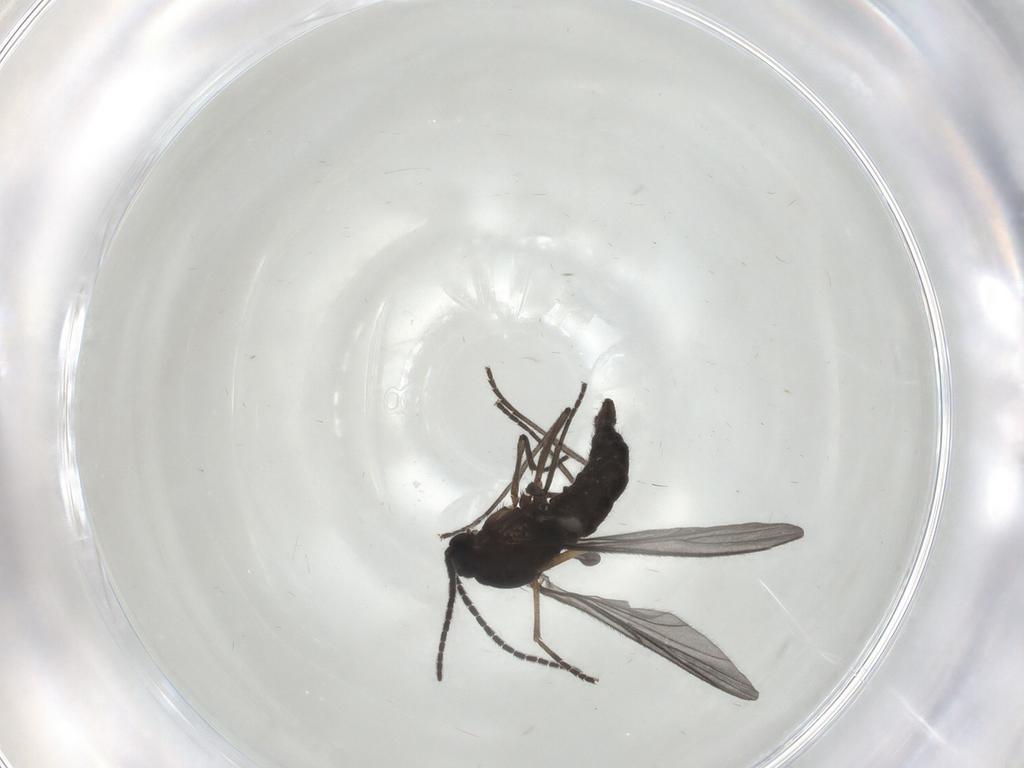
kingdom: Animalia
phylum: Arthropoda
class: Insecta
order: Diptera
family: Sciaridae
